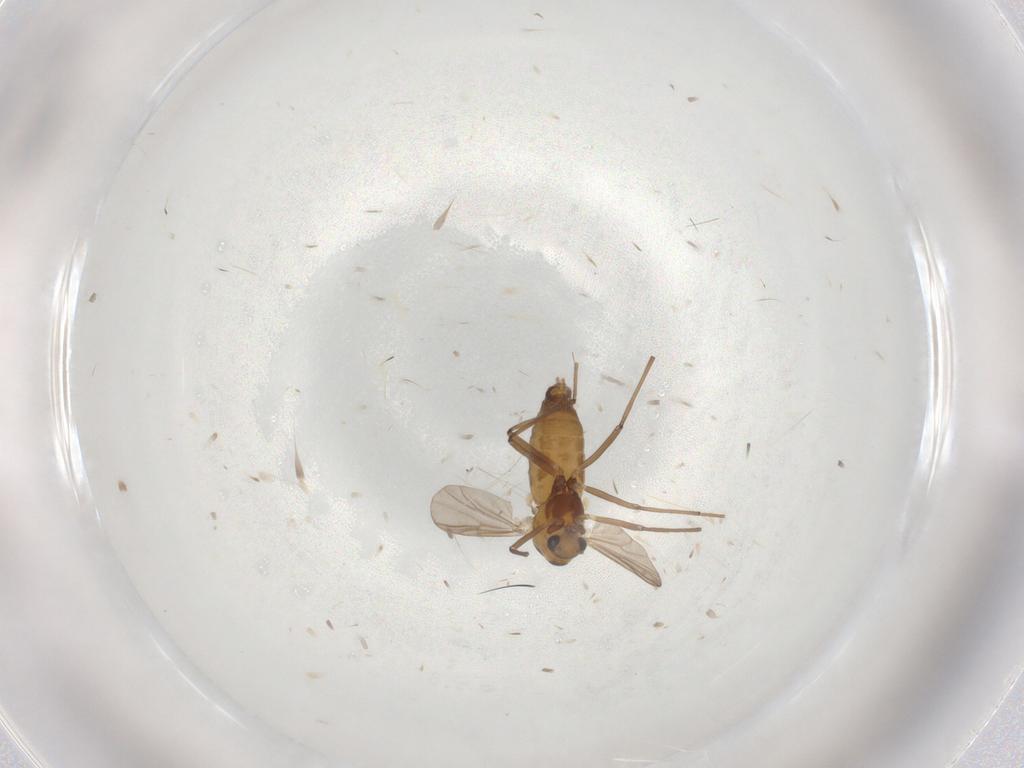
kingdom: Animalia
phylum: Arthropoda
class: Insecta
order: Diptera
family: Chironomidae
